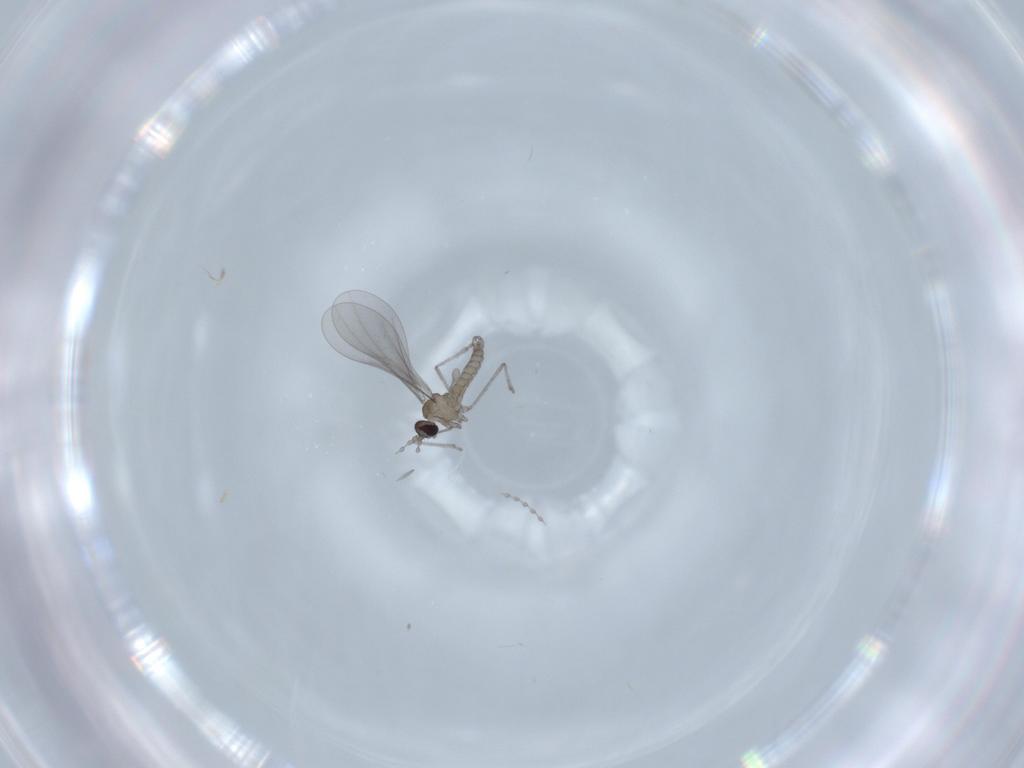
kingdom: Animalia
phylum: Arthropoda
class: Insecta
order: Diptera
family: Cecidomyiidae
